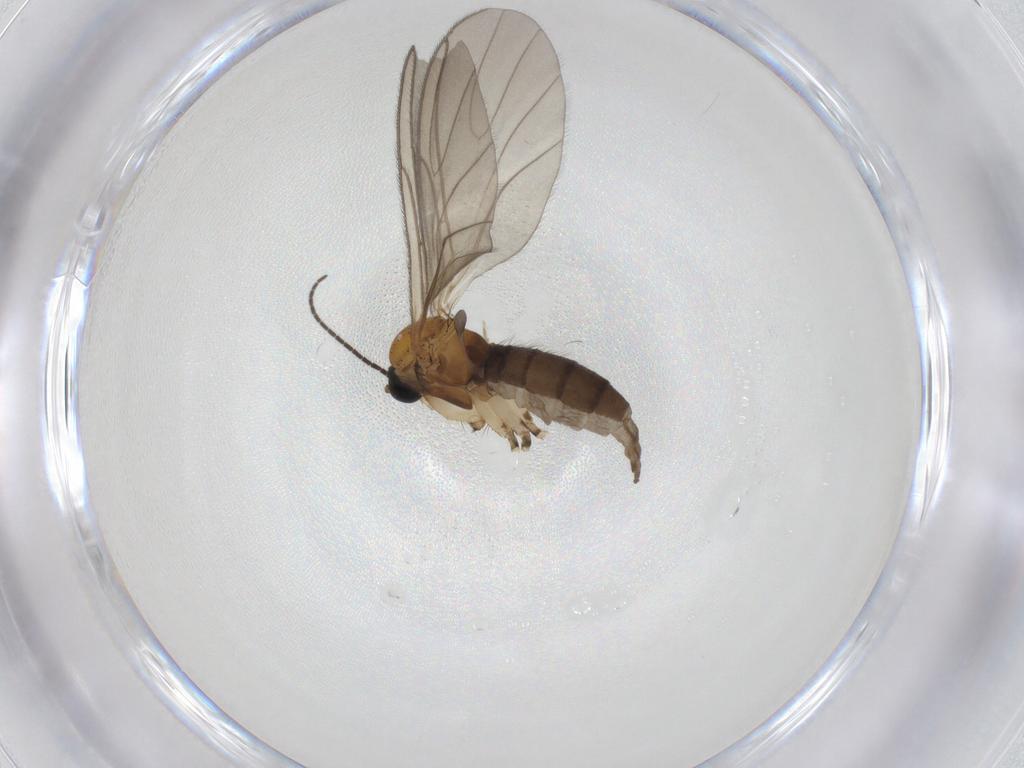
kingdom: Animalia
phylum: Arthropoda
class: Insecta
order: Diptera
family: Sciaridae
